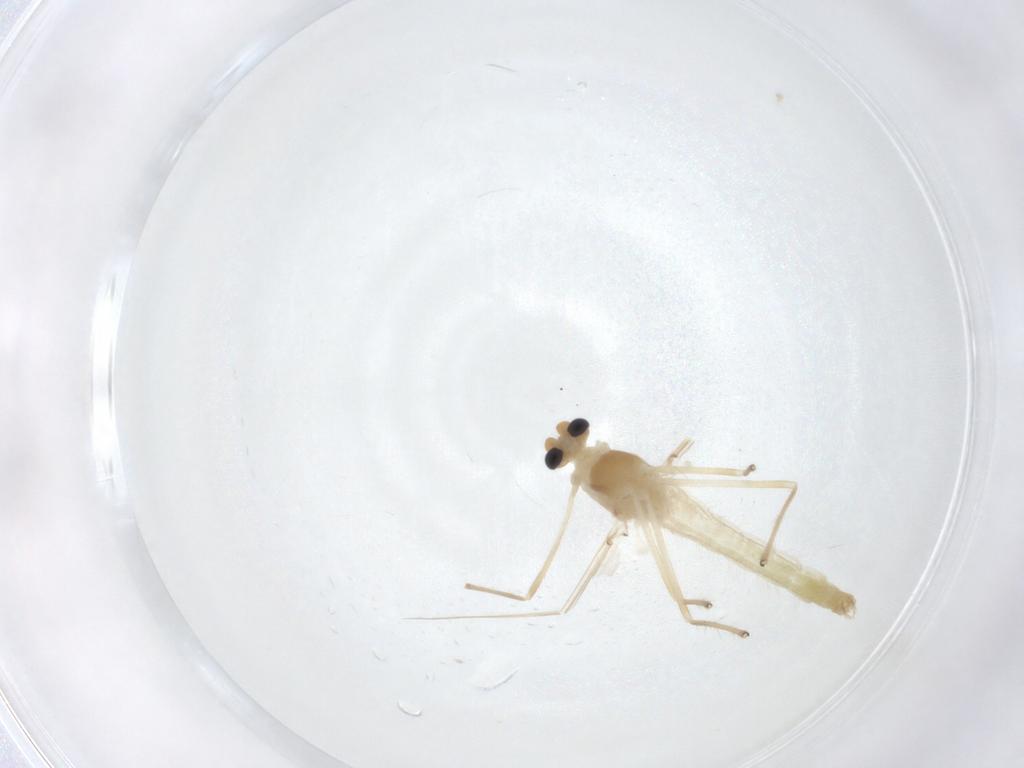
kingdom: Animalia
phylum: Arthropoda
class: Insecta
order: Diptera
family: Chironomidae
